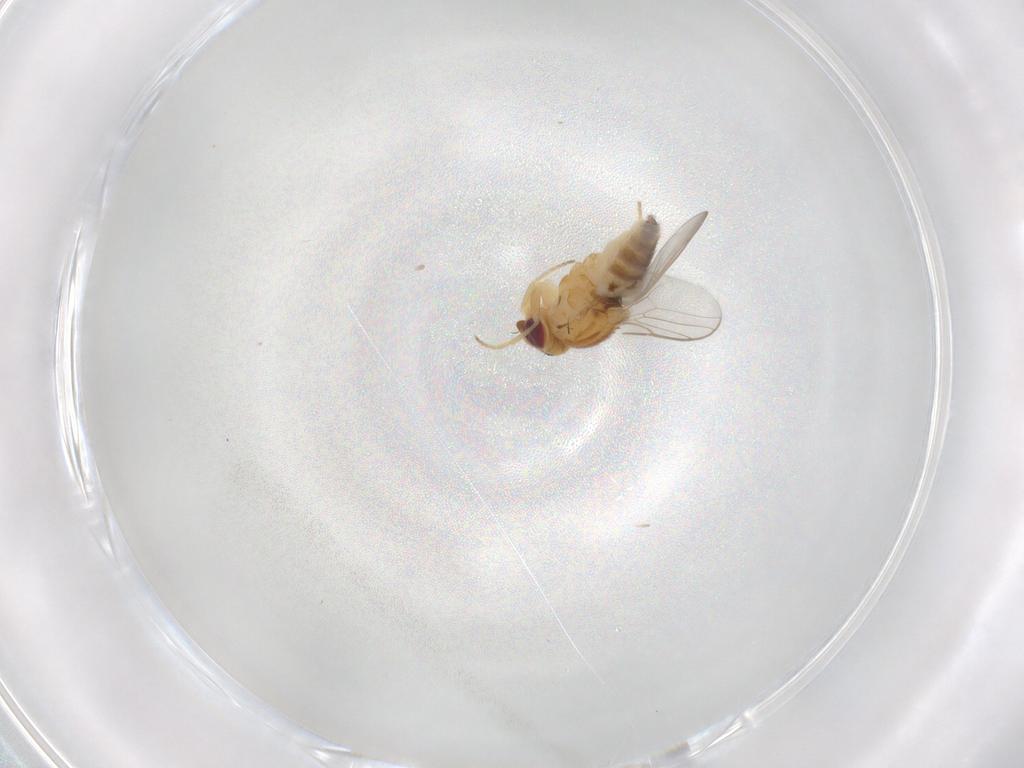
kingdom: Animalia
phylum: Arthropoda
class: Insecta
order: Diptera
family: Chloropidae
